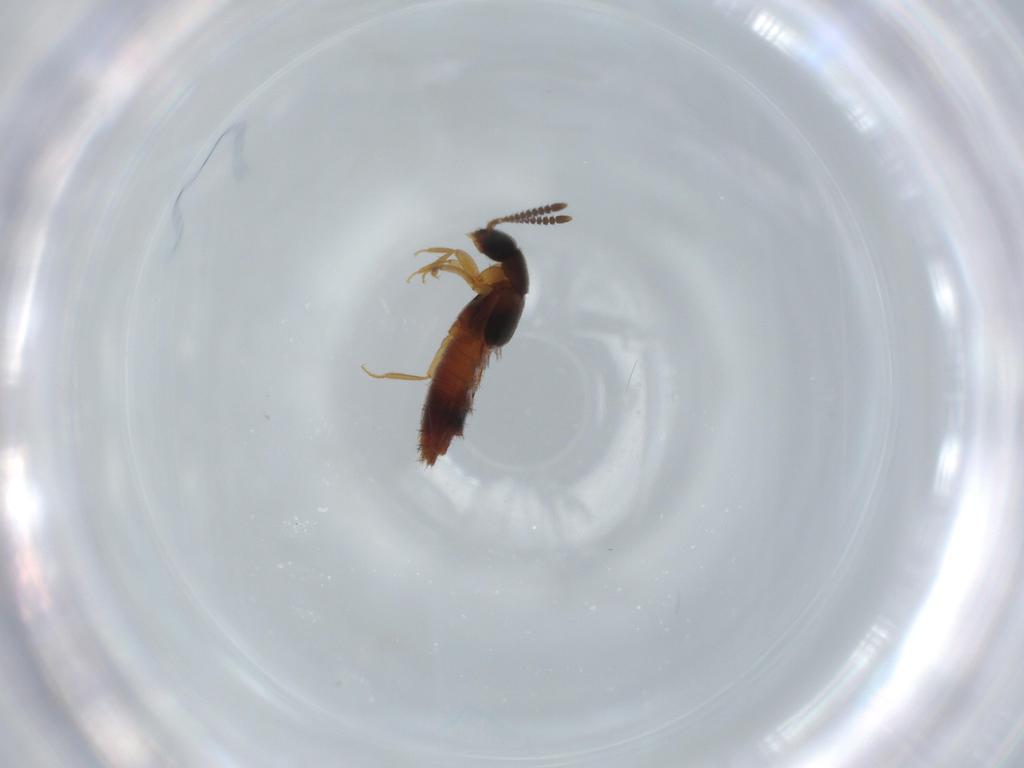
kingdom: Animalia
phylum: Arthropoda
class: Insecta
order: Coleoptera
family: Staphylinidae
